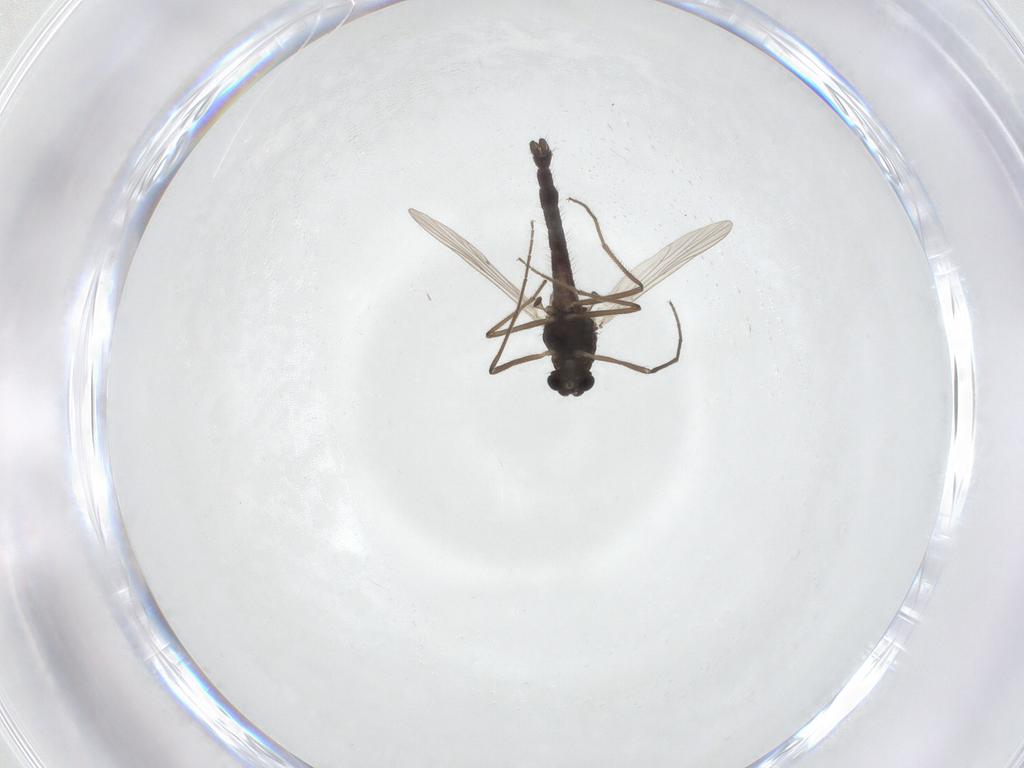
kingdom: Animalia
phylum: Arthropoda
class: Insecta
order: Diptera
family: Chironomidae
